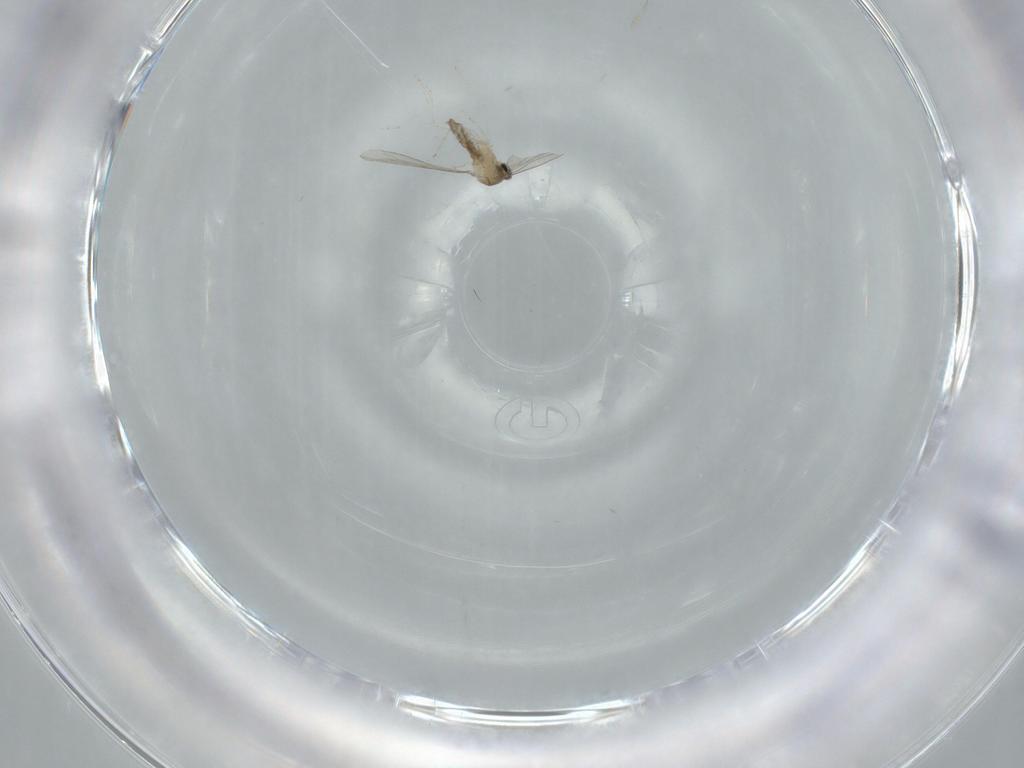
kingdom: Animalia
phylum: Arthropoda
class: Insecta
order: Diptera
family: Cecidomyiidae
